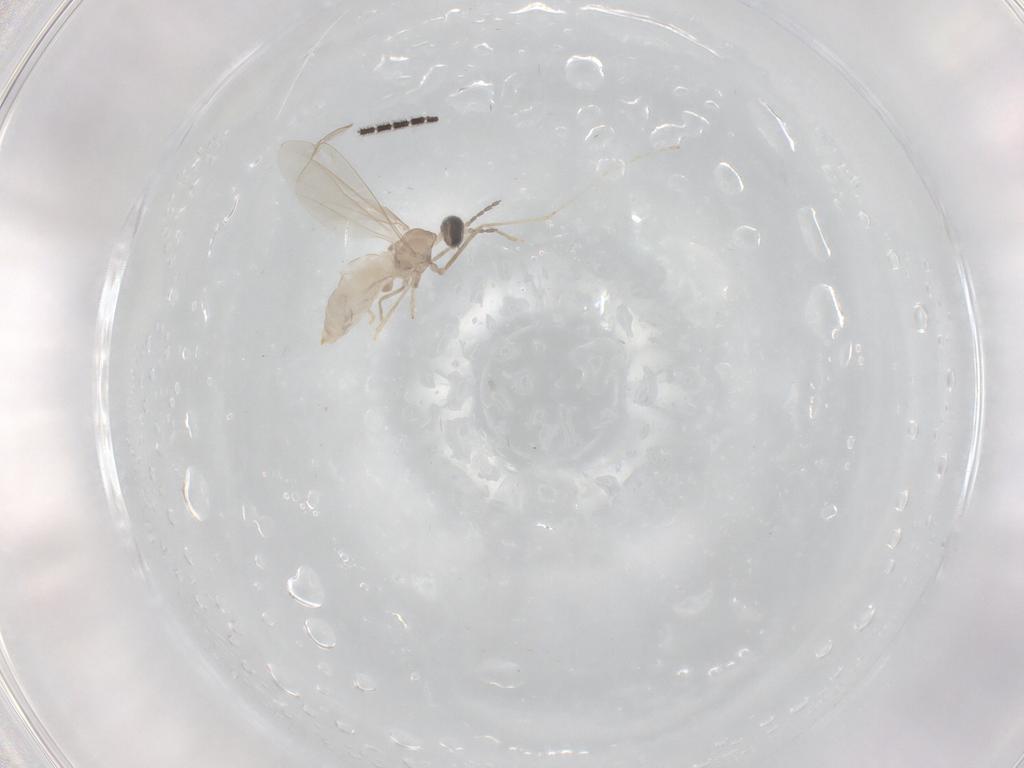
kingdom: Animalia
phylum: Arthropoda
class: Insecta
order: Diptera
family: Cecidomyiidae
